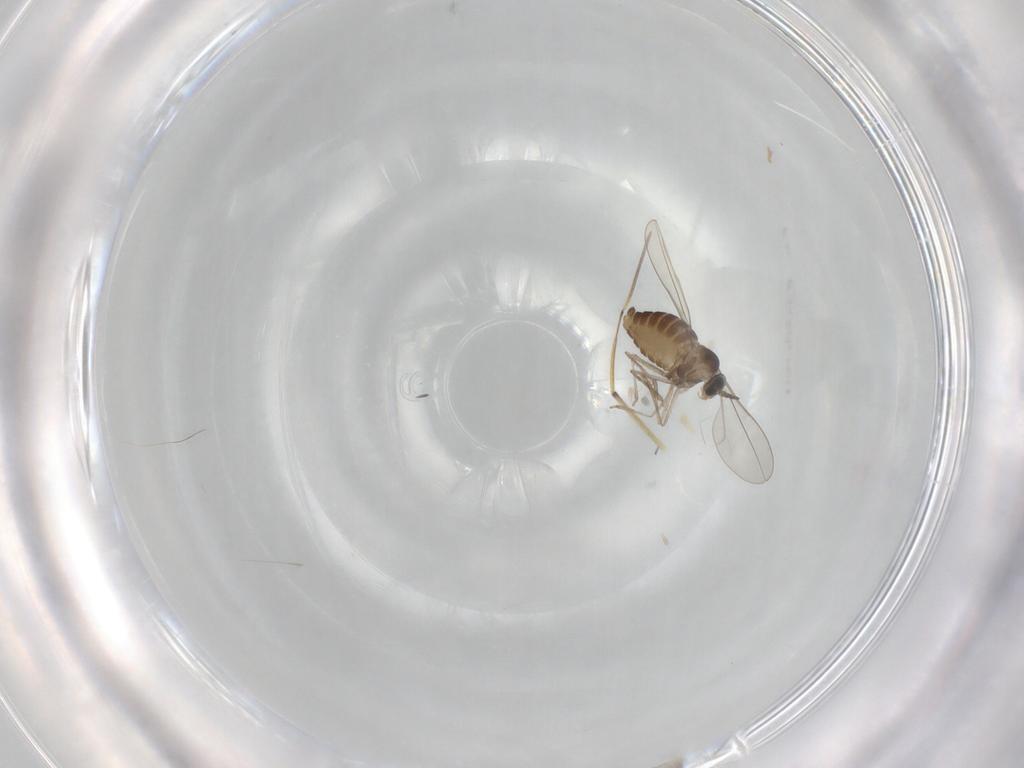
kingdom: Animalia
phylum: Arthropoda
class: Insecta
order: Diptera
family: Cecidomyiidae
